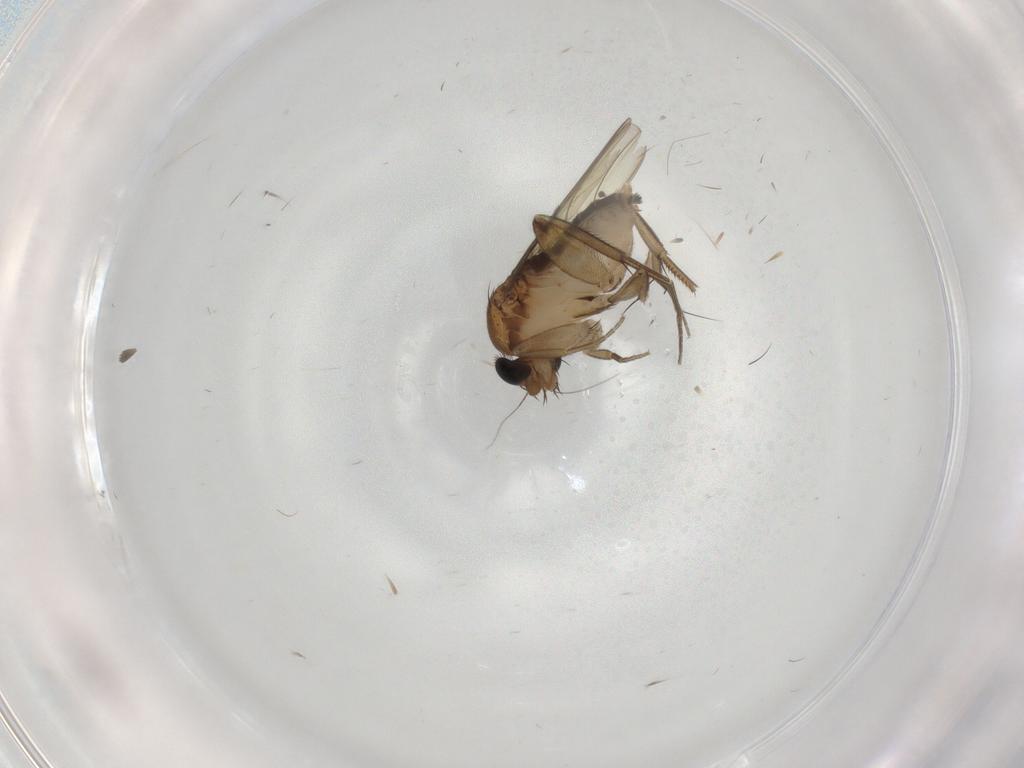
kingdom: Animalia
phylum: Arthropoda
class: Insecta
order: Diptera
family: Phoridae
